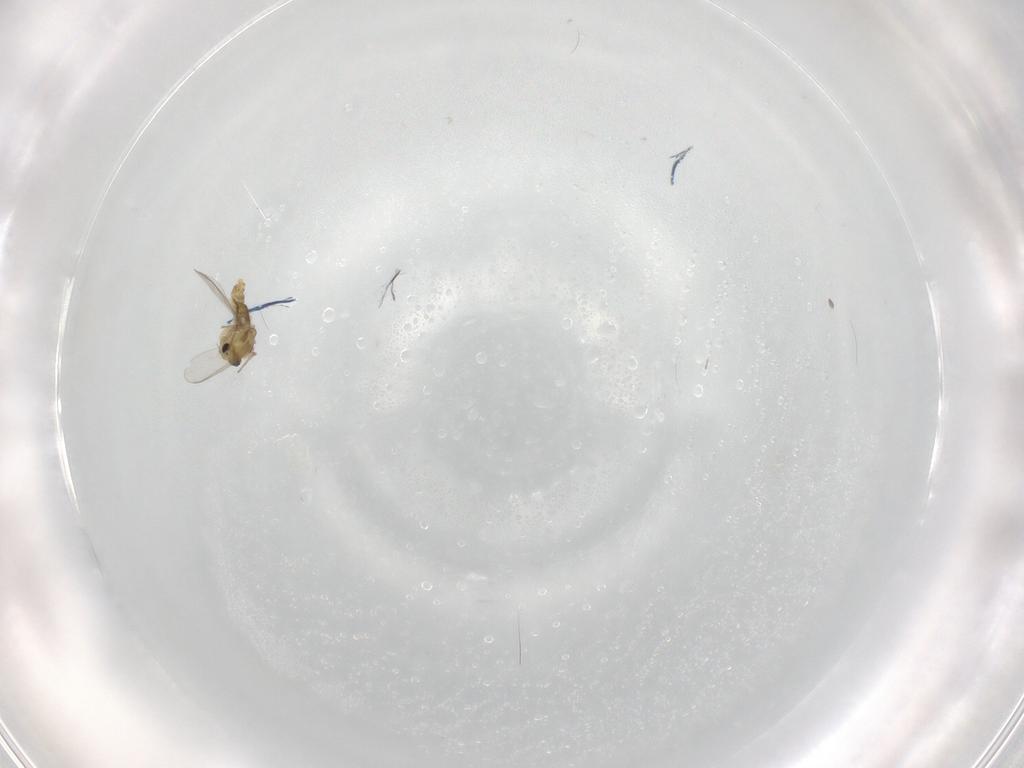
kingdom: Animalia
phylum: Arthropoda
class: Insecta
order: Diptera
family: Chironomidae
